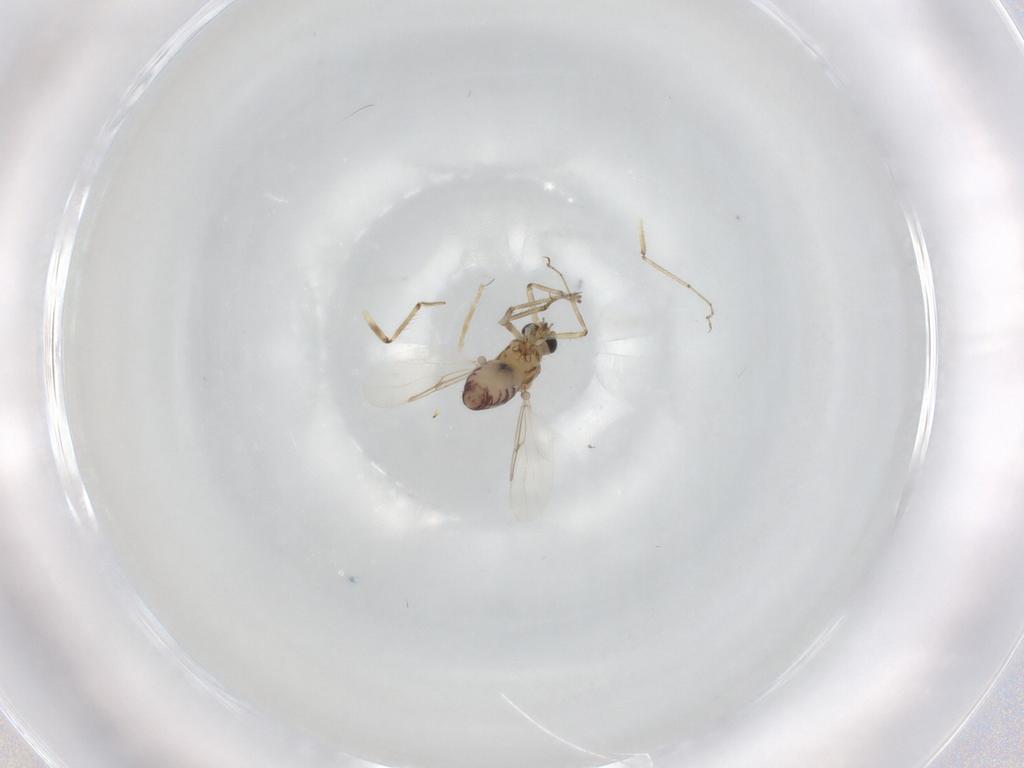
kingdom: Animalia
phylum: Arthropoda
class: Insecta
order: Diptera
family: Ceratopogonidae
